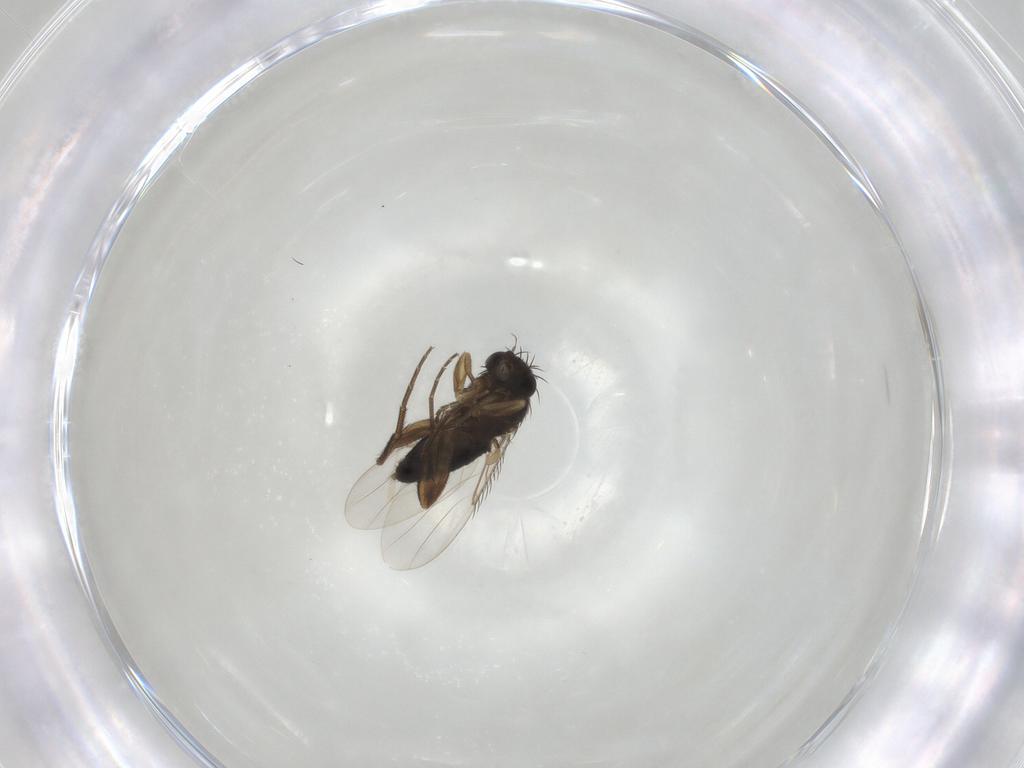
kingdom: Animalia
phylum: Arthropoda
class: Insecta
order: Diptera
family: Phoridae
